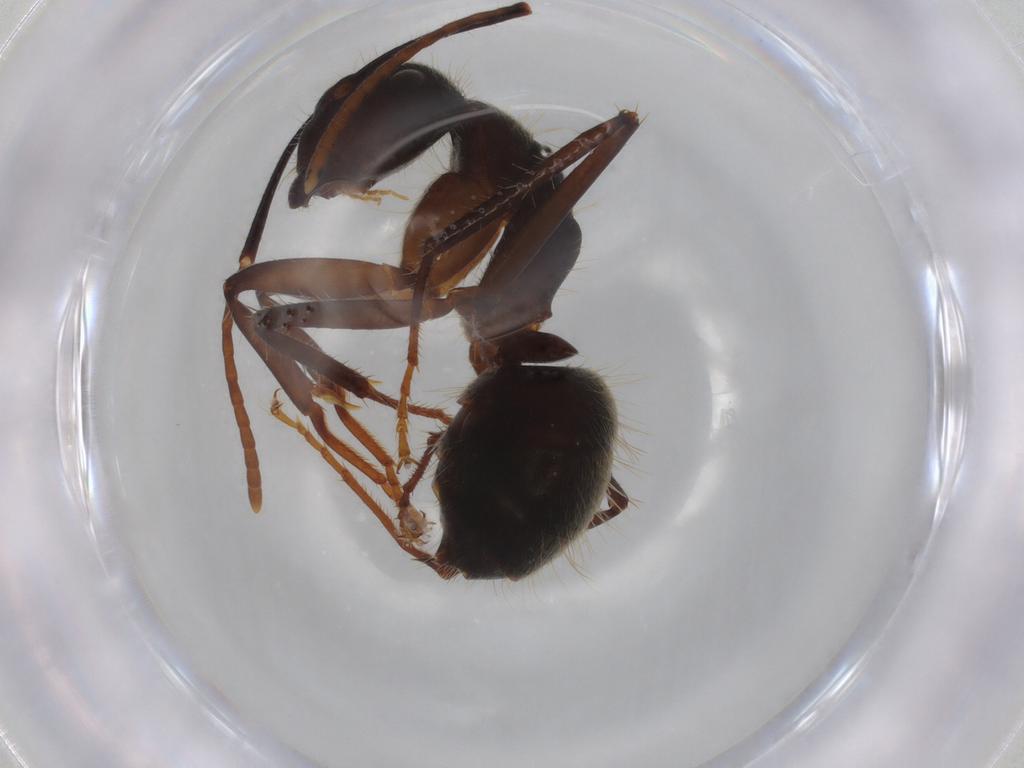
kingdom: Animalia
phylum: Arthropoda
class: Insecta
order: Hymenoptera
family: Formicidae
